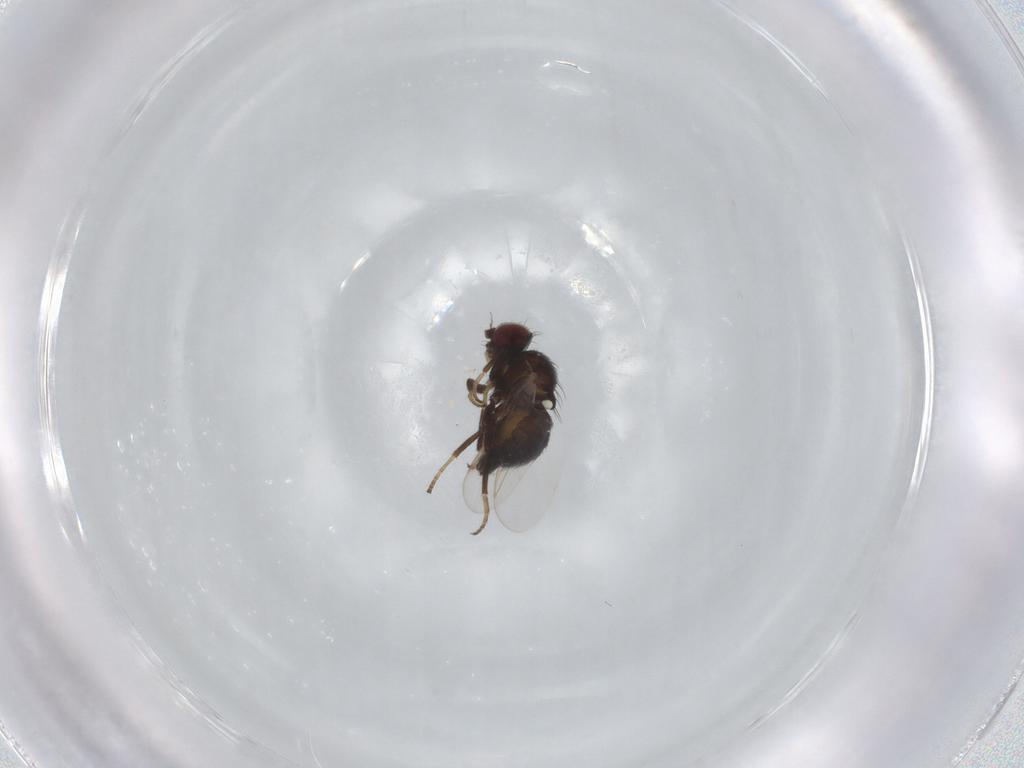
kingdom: Animalia
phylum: Arthropoda
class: Insecta
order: Diptera
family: Agromyzidae
